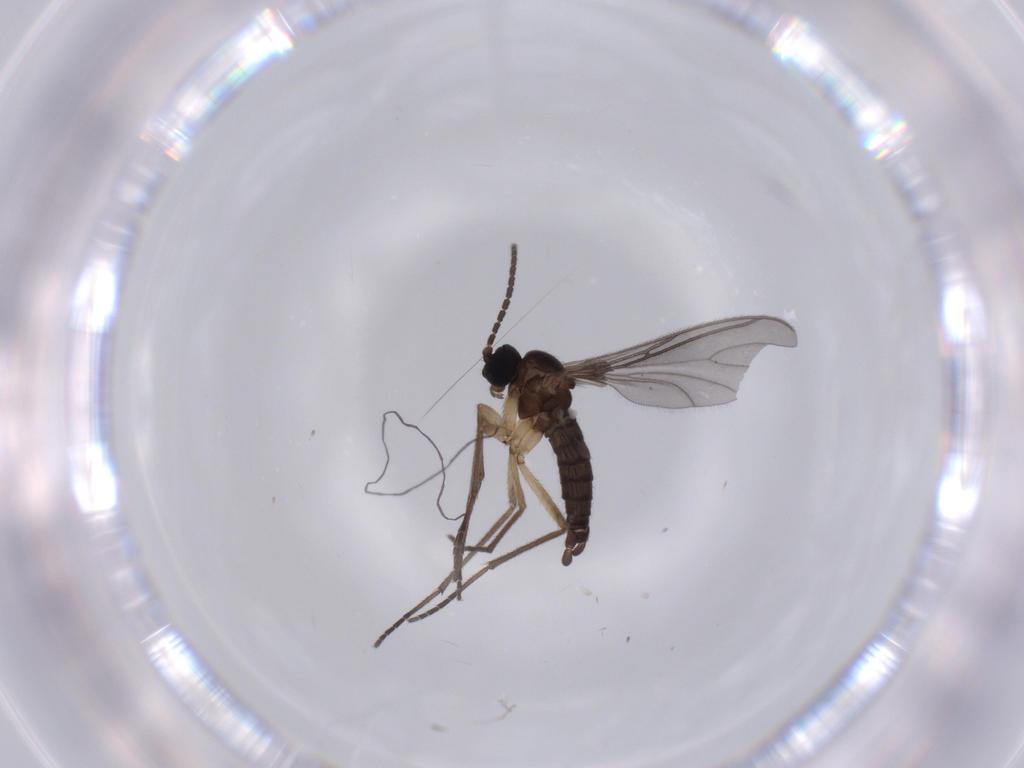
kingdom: Animalia
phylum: Arthropoda
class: Insecta
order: Diptera
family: Sciaridae
